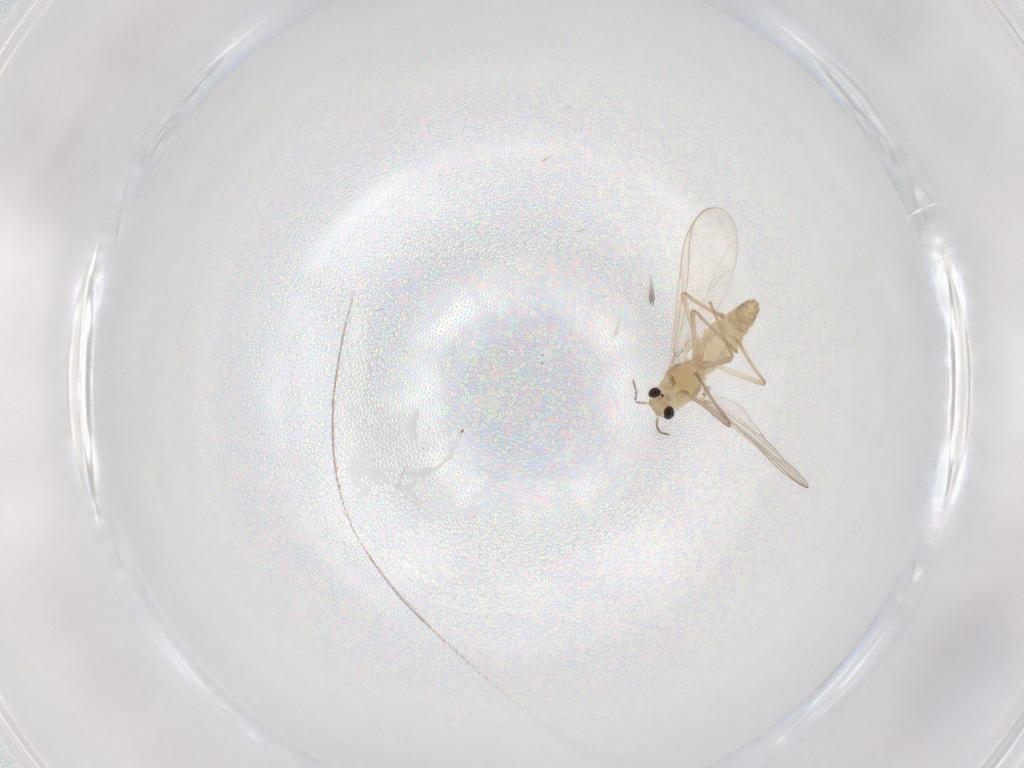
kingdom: Animalia
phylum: Arthropoda
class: Insecta
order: Diptera
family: Chironomidae
